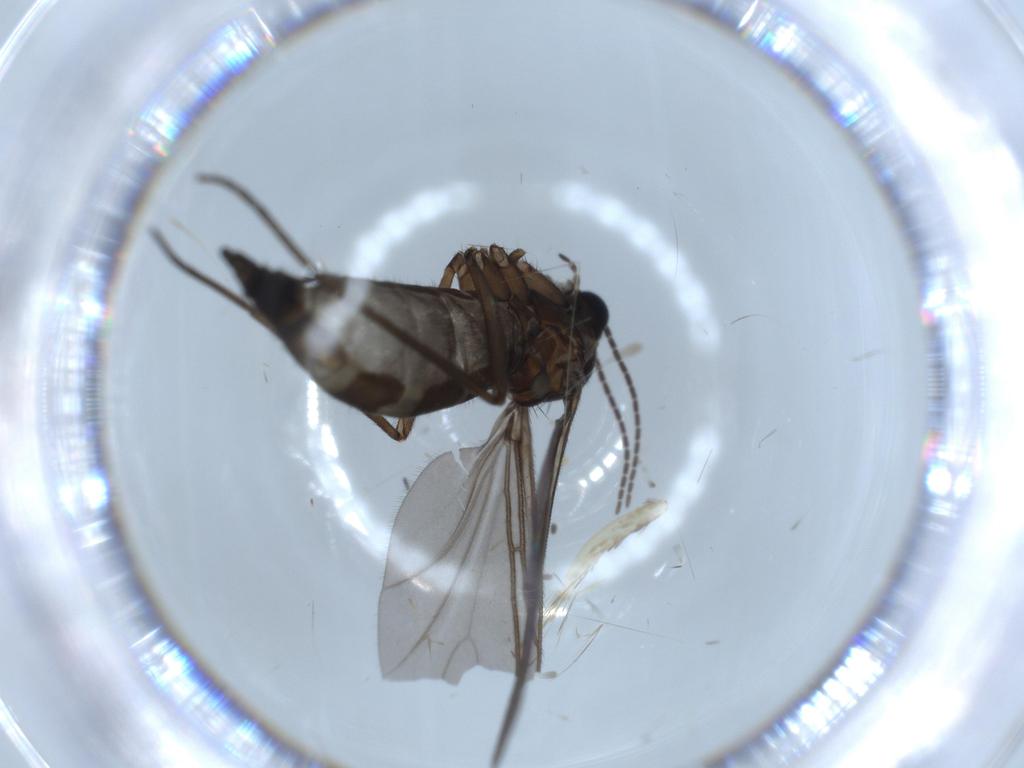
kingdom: Animalia
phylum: Arthropoda
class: Insecta
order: Diptera
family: Sciaridae
